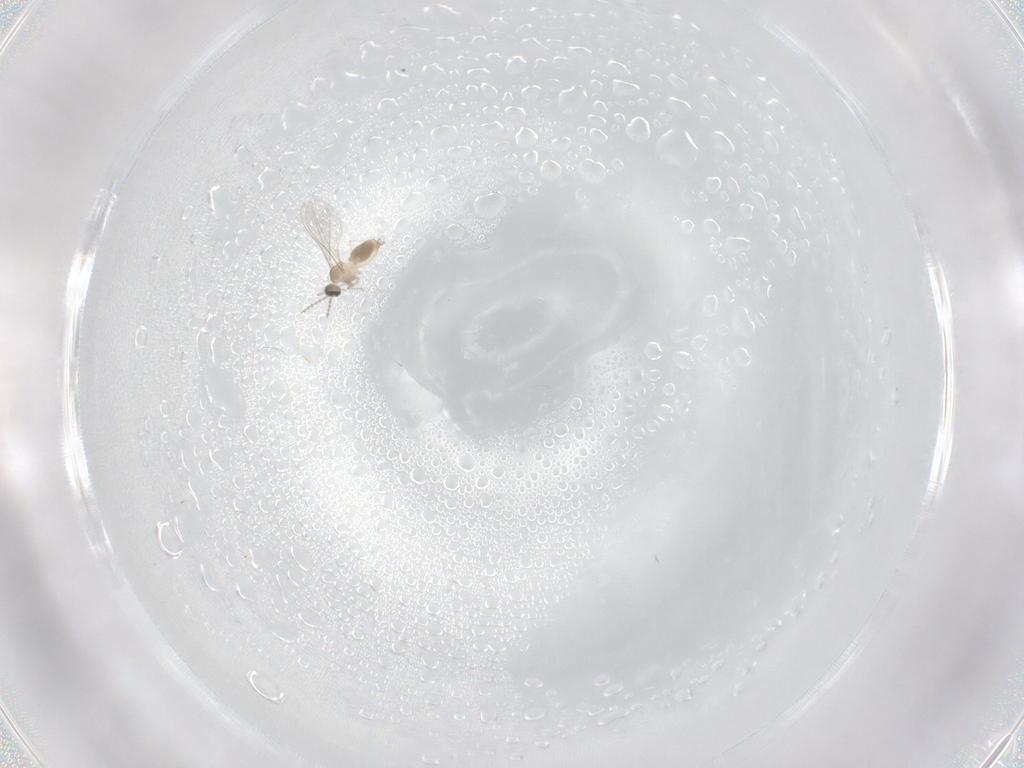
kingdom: Animalia
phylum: Arthropoda
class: Insecta
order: Diptera
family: Cecidomyiidae
